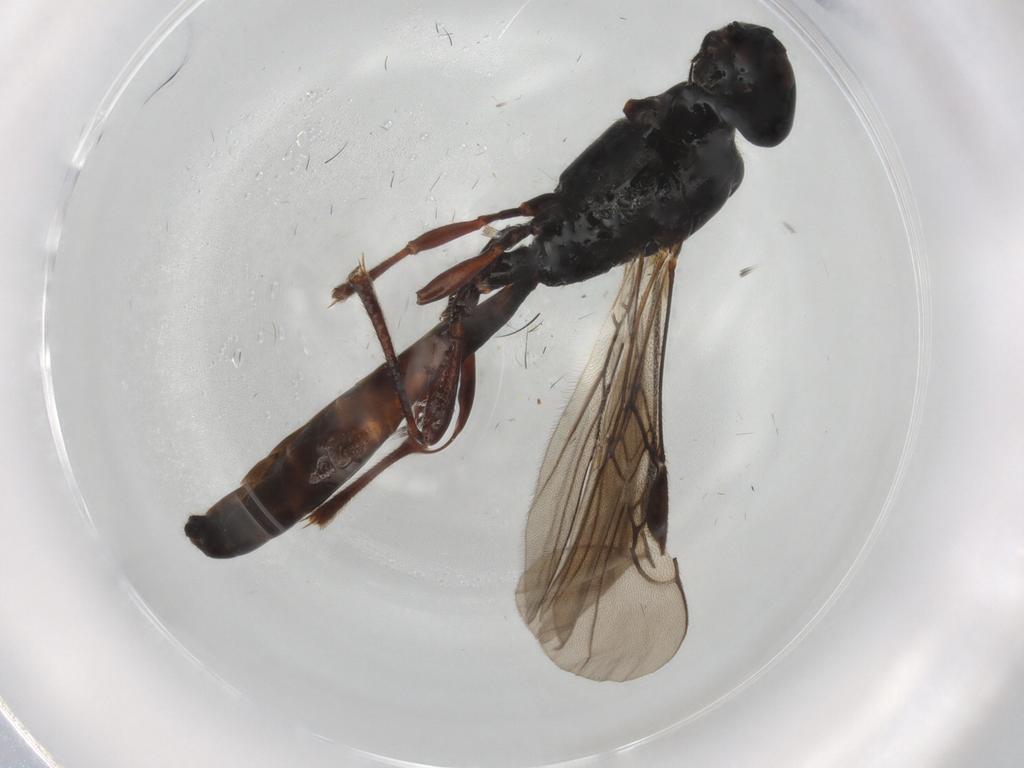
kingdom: Animalia
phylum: Arthropoda
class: Insecta
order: Hymenoptera
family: Braconidae
